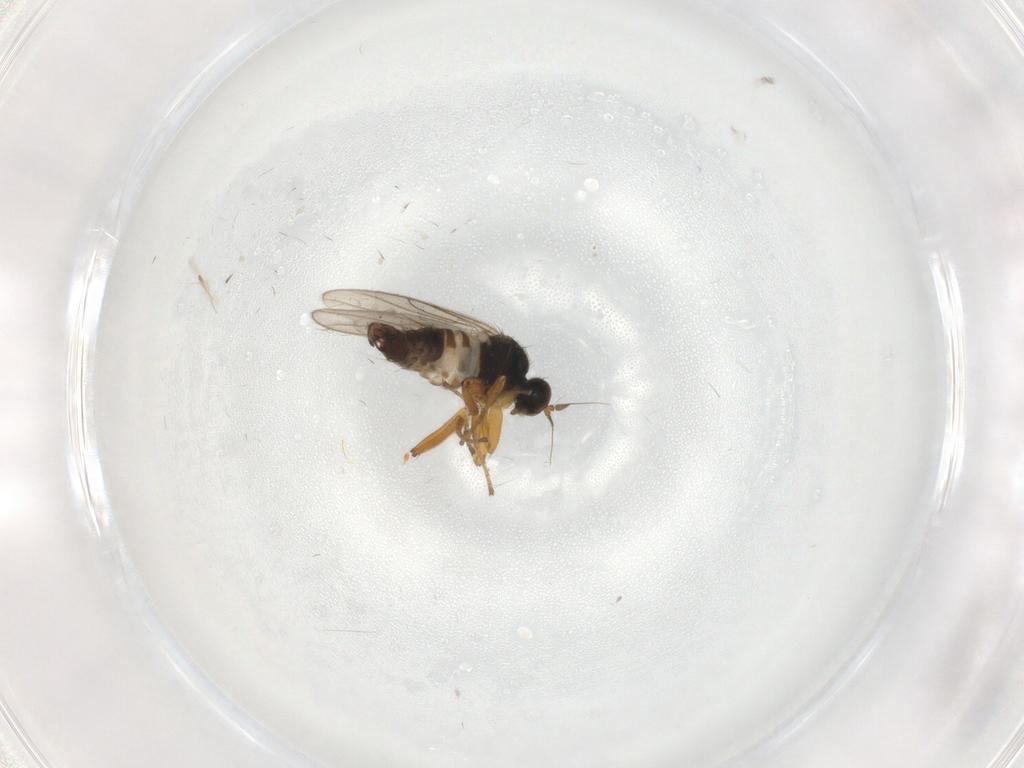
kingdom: Animalia
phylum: Arthropoda
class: Insecta
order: Diptera
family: Hybotidae
